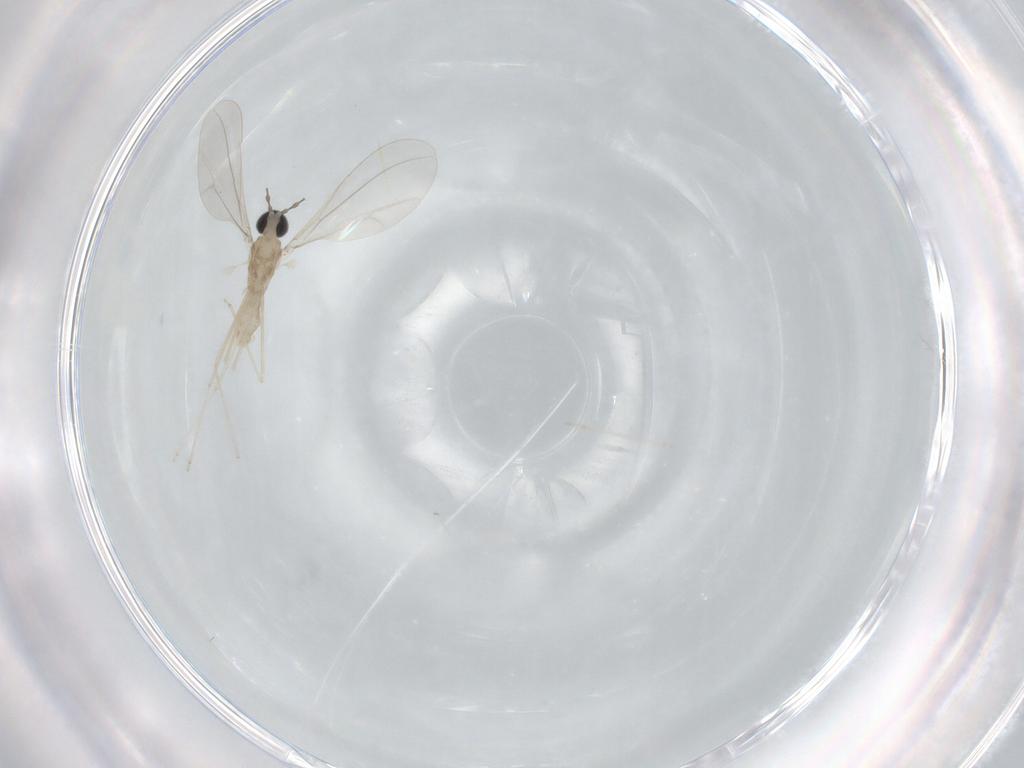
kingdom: Animalia
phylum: Arthropoda
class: Insecta
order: Diptera
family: Cecidomyiidae
